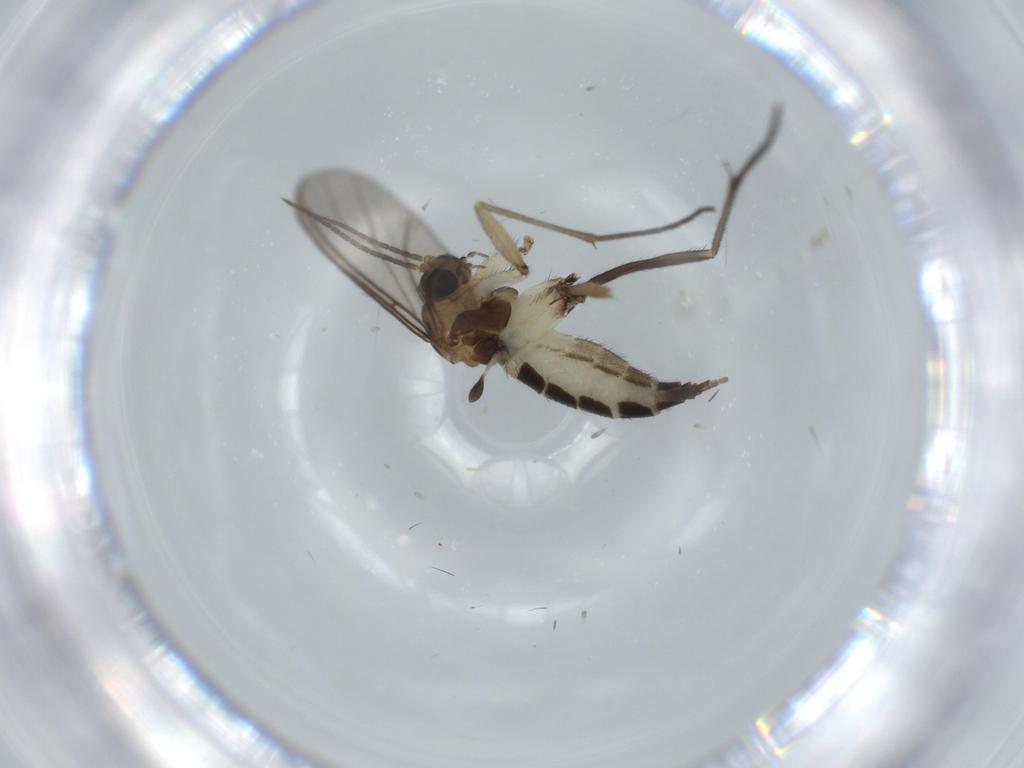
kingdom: Animalia
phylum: Arthropoda
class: Insecta
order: Diptera
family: Sciaridae
